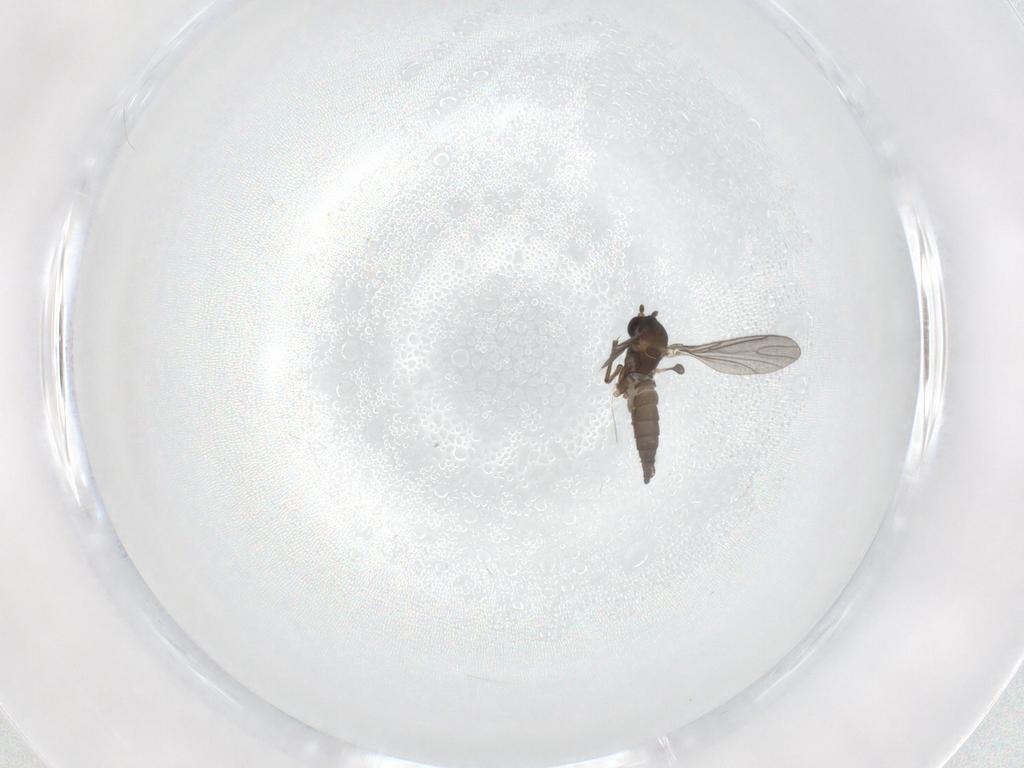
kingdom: Animalia
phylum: Arthropoda
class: Insecta
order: Diptera
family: Sciaridae
